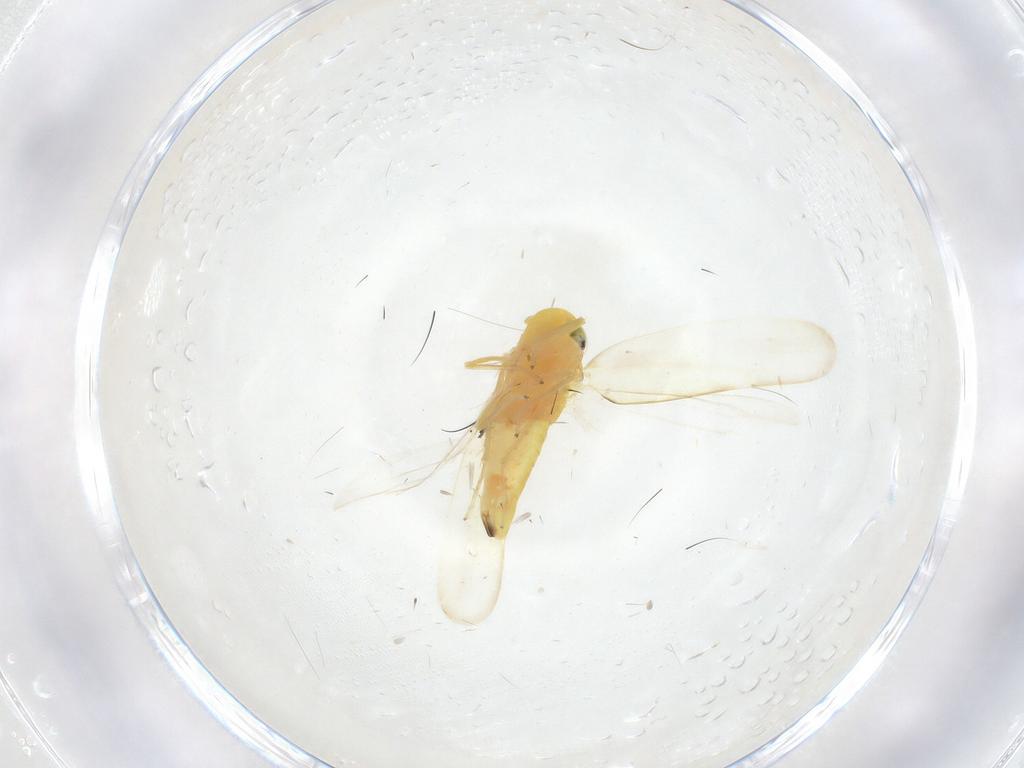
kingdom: Animalia
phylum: Arthropoda
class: Insecta
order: Hemiptera
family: Cicadellidae
